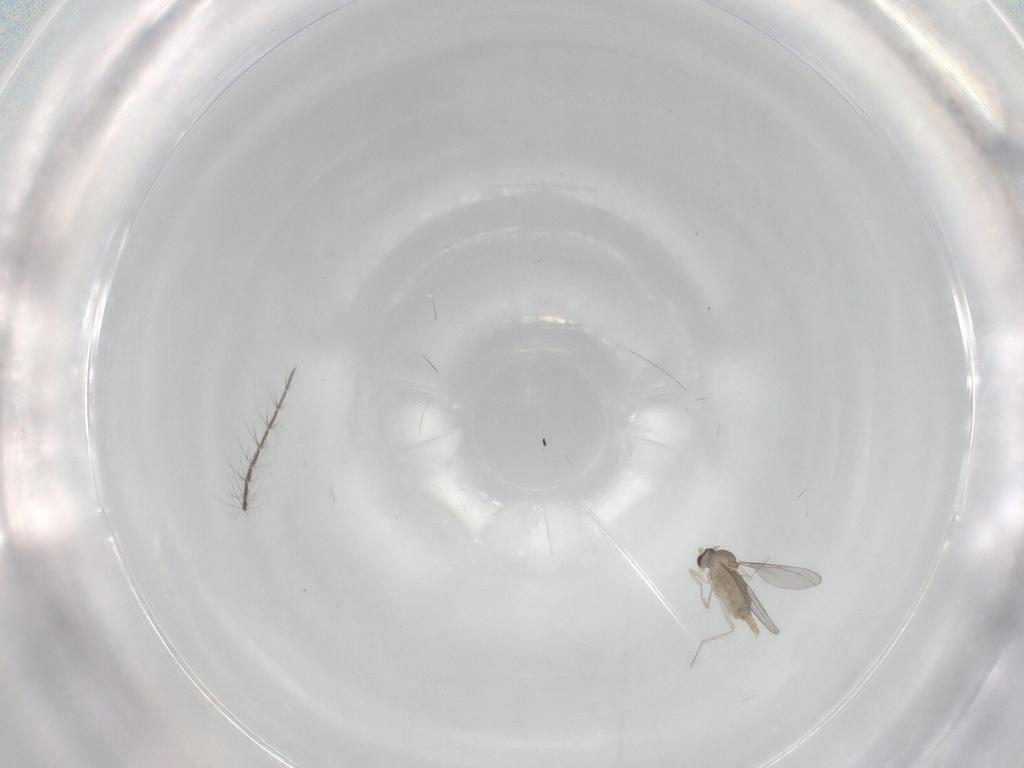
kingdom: Animalia
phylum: Arthropoda
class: Insecta
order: Diptera
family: Cecidomyiidae
